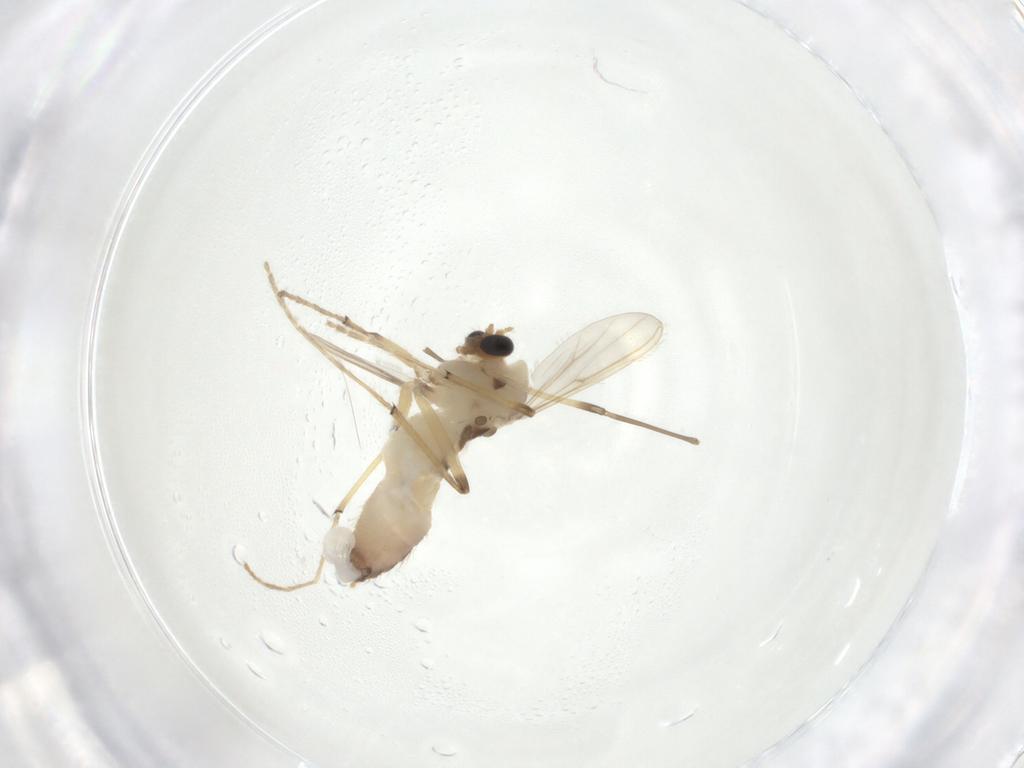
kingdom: Animalia
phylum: Arthropoda
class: Insecta
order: Diptera
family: Chironomidae
